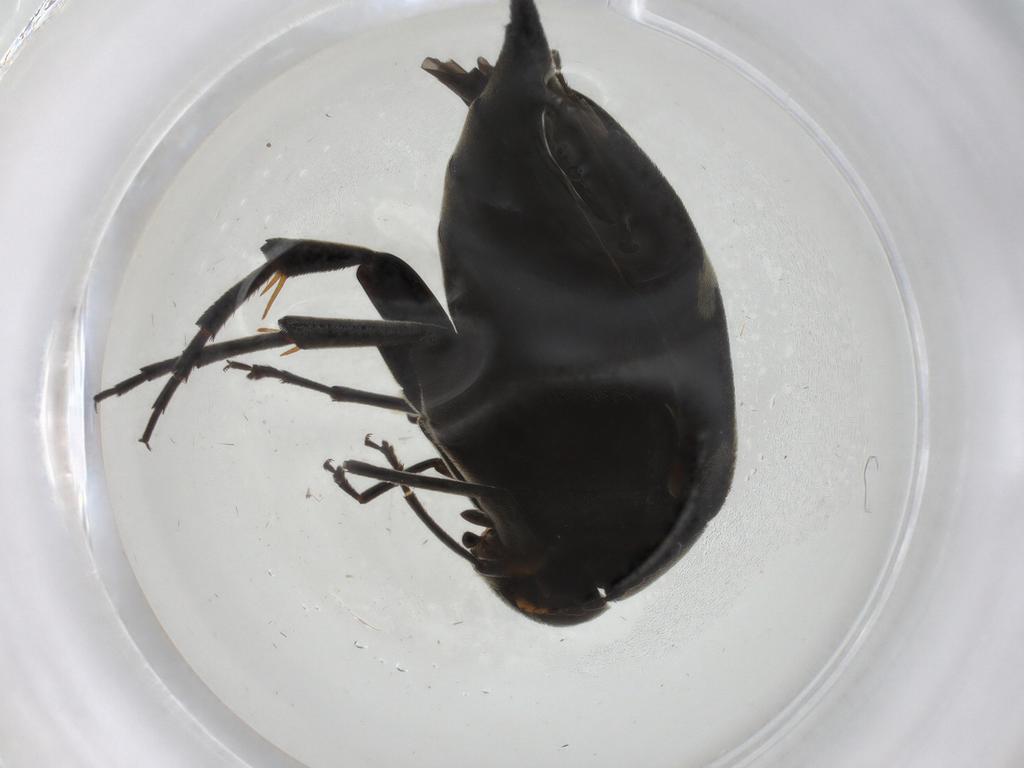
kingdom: Animalia
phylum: Arthropoda
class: Insecta
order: Coleoptera
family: Mordellidae
